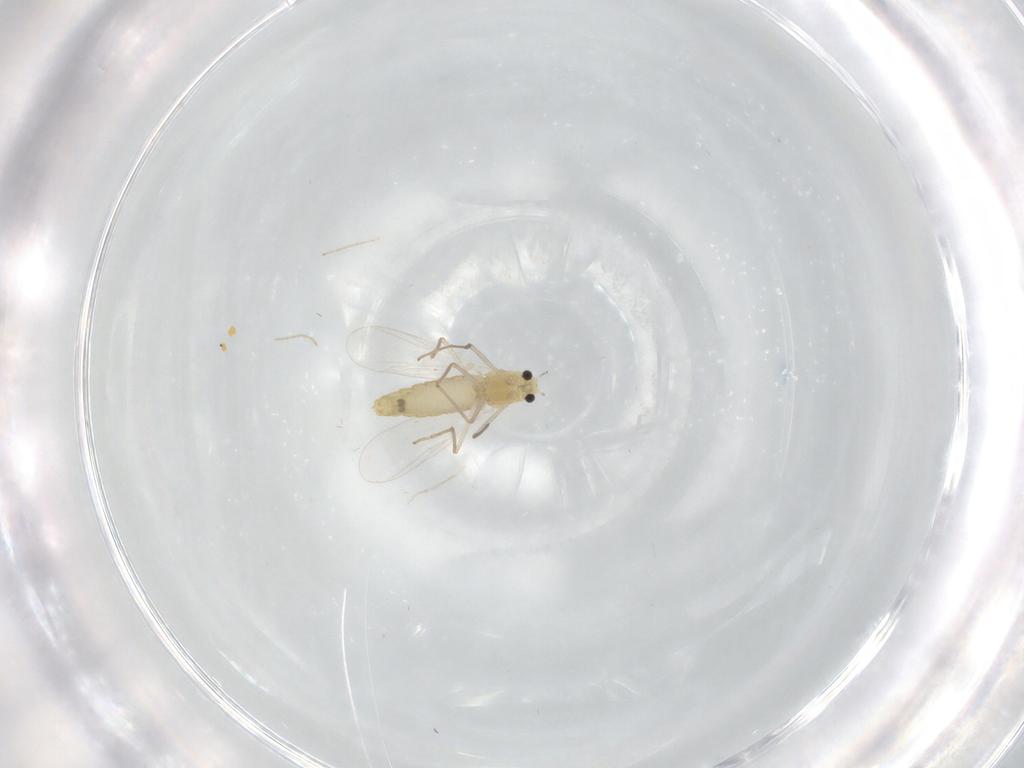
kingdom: Animalia
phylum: Arthropoda
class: Insecta
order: Diptera
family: Chironomidae
